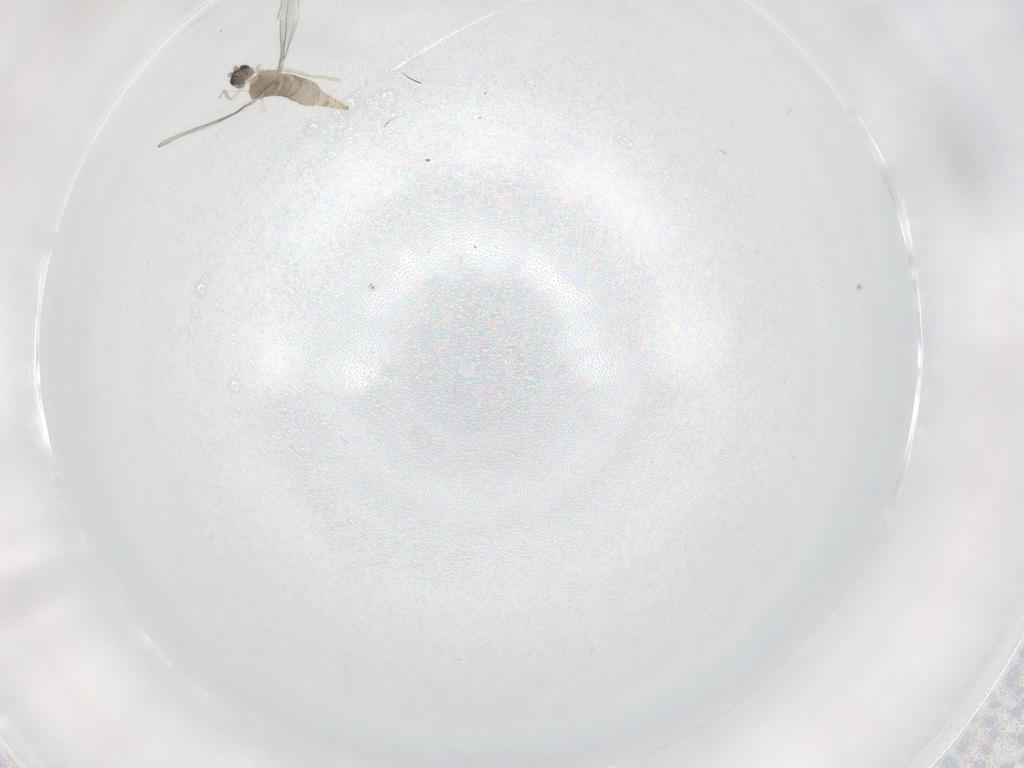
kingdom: Animalia
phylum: Arthropoda
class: Insecta
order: Diptera
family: Cecidomyiidae
